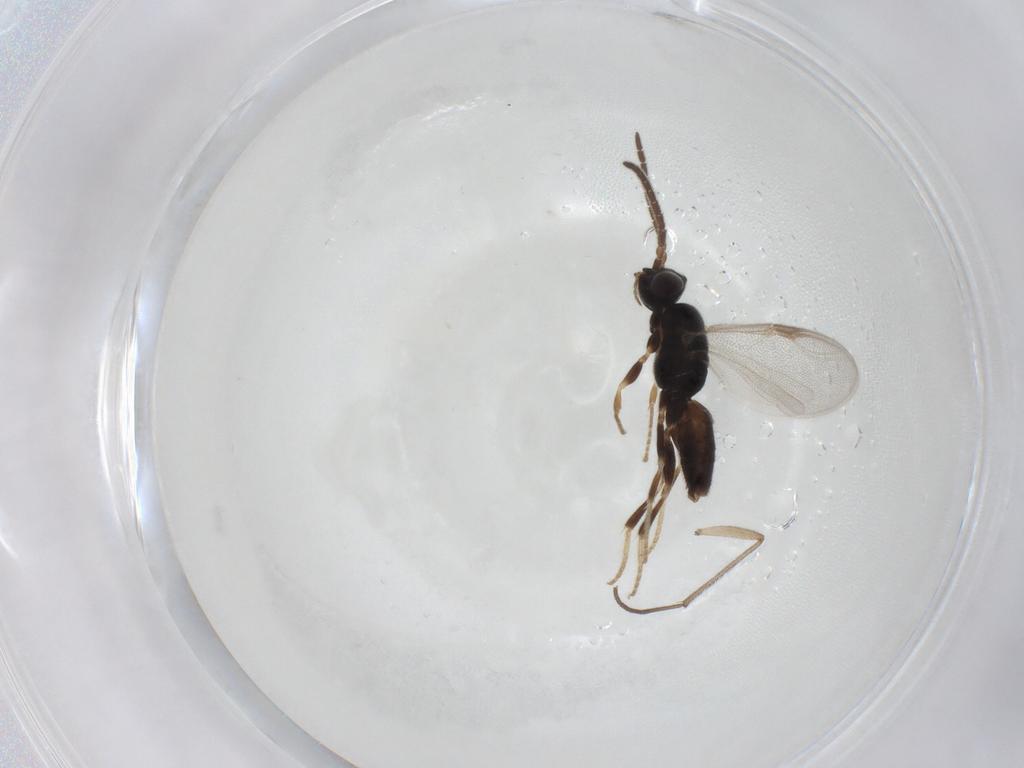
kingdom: Animalia
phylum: Arthropoda
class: Insecta
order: Hymenoptera
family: Dryinidae
